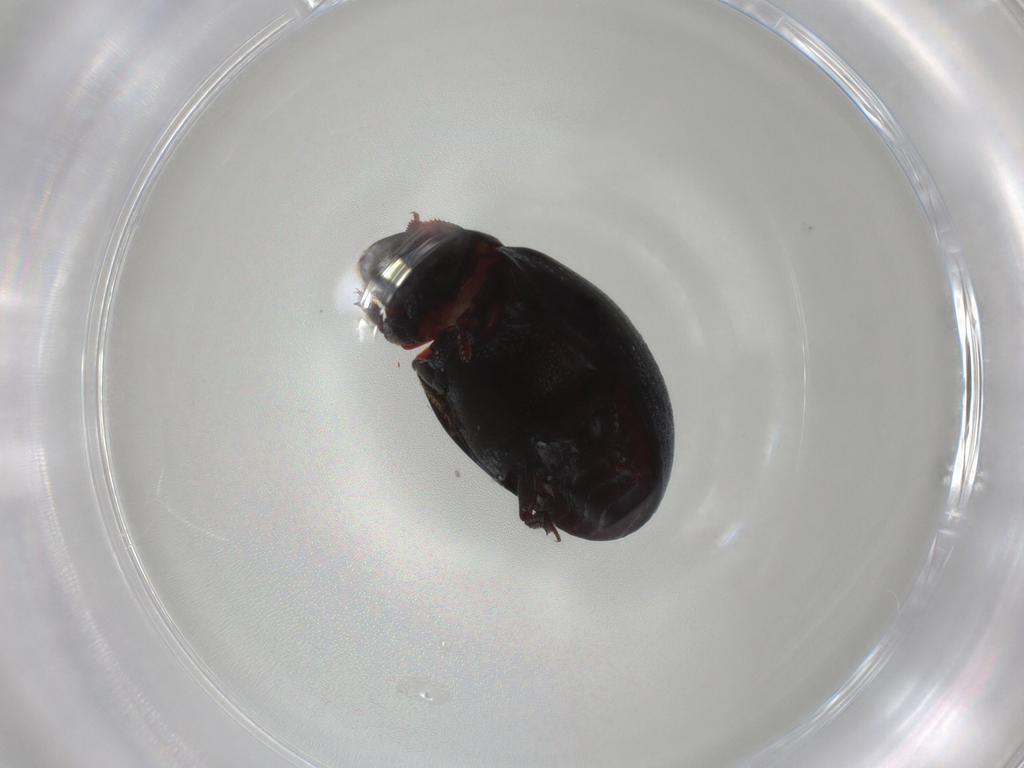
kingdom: Animalia
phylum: Arthropoda
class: Insecta
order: Coleoptera
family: Nosodendridae
